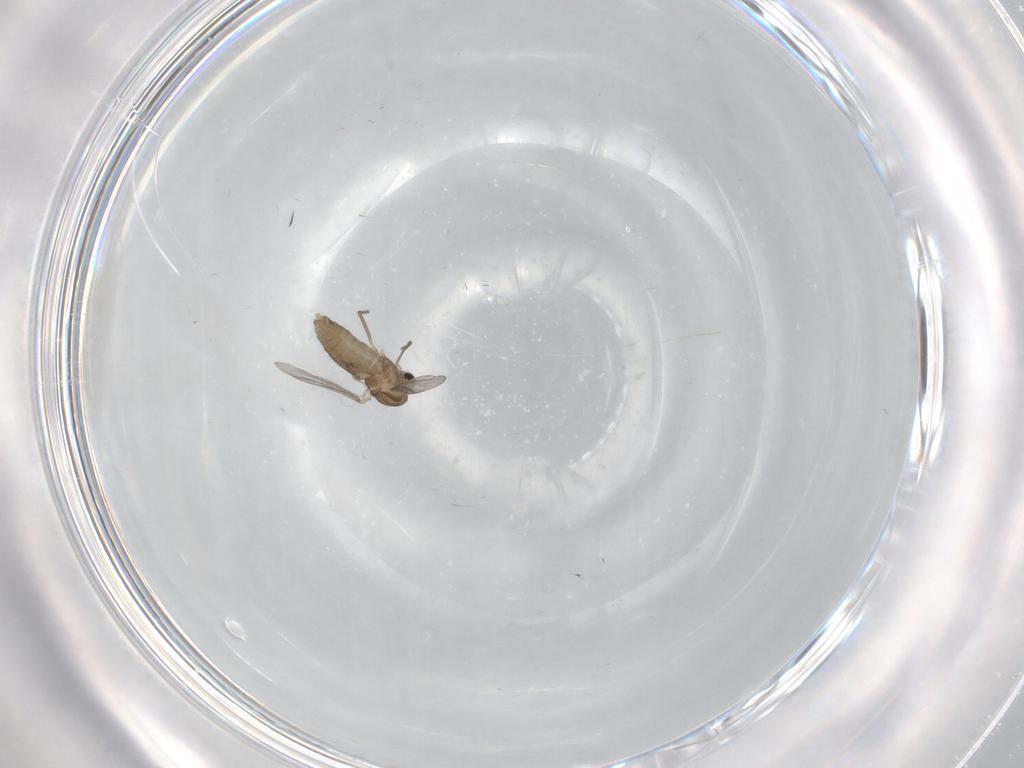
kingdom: Animalia
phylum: Arthropoda
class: Insecta
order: Diptera
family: Chironomidae
